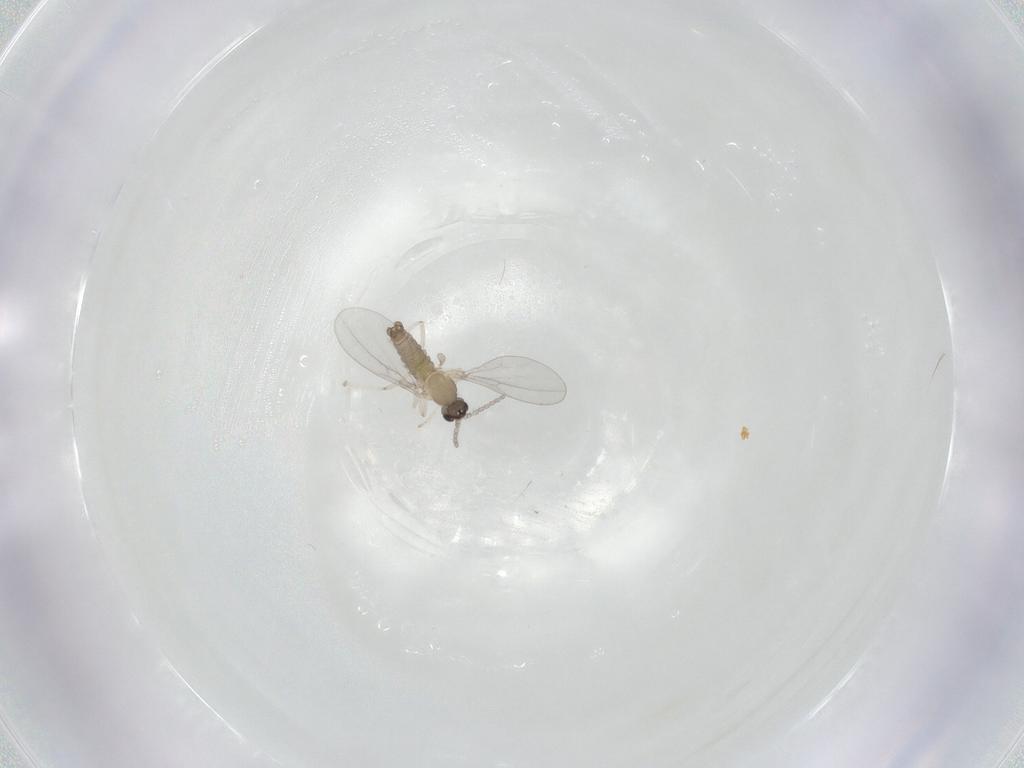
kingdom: Animalia
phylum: Arthropoda
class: Insecta
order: Diptera
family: Cecidomyiidae
